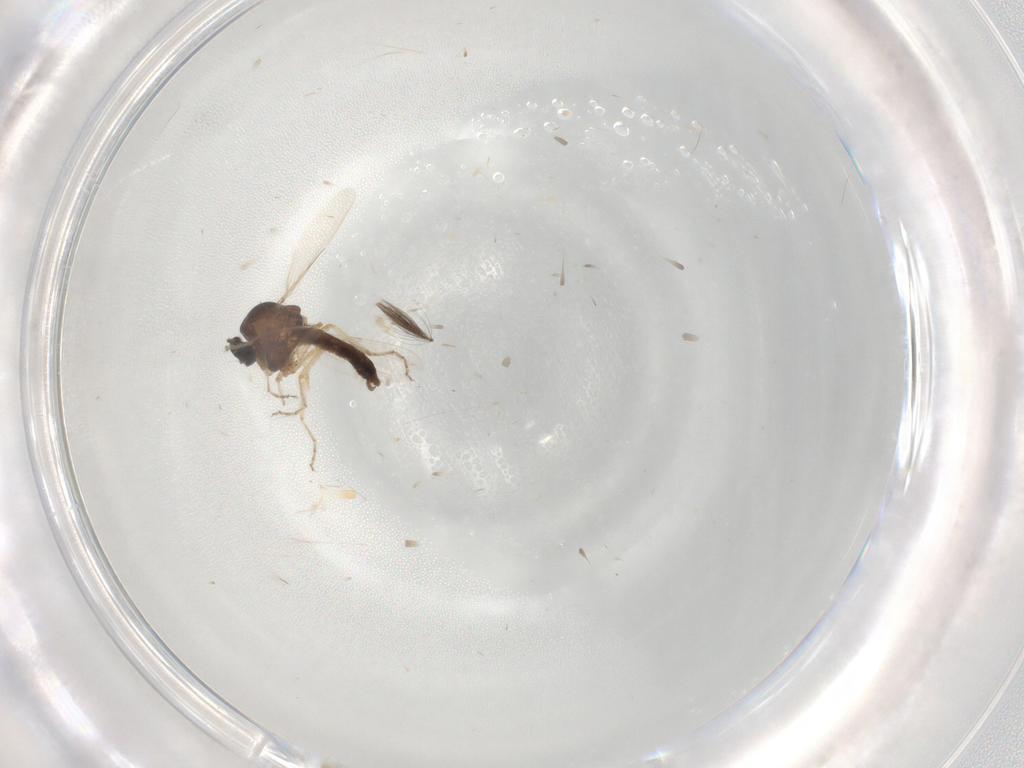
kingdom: Animalia
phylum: Arthropoda
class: Insecta
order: Diptera
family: Ceratopogonidae
